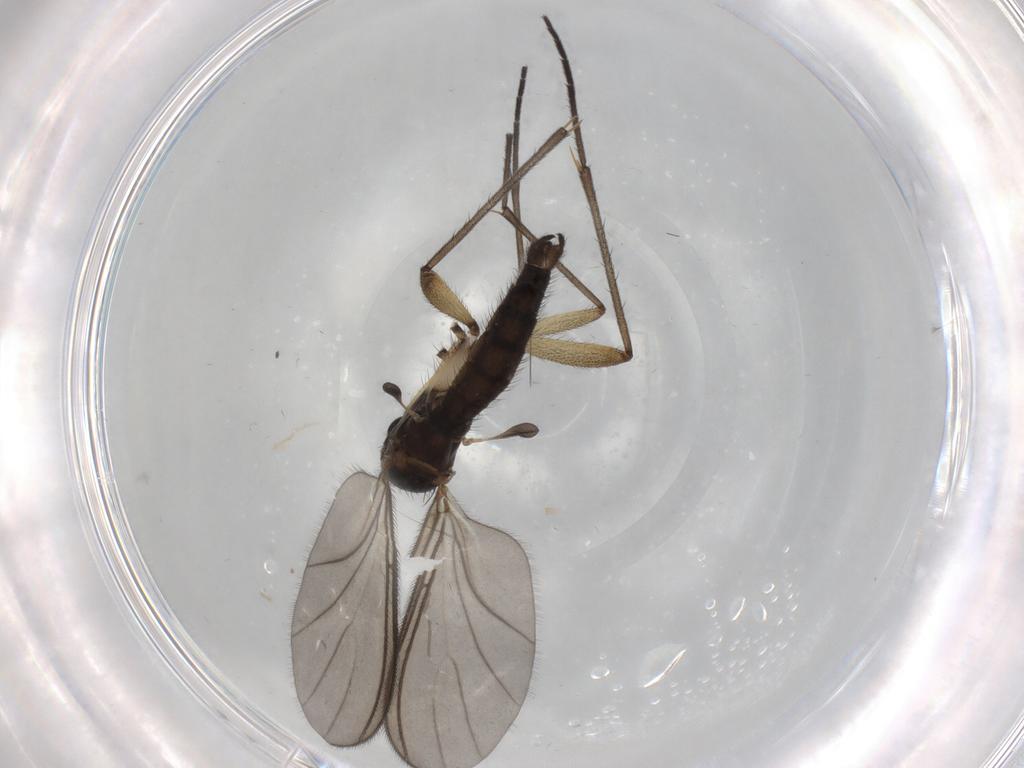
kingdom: Animalia
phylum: Arthropoda
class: Insecta
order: Diptera
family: Sciaridae
